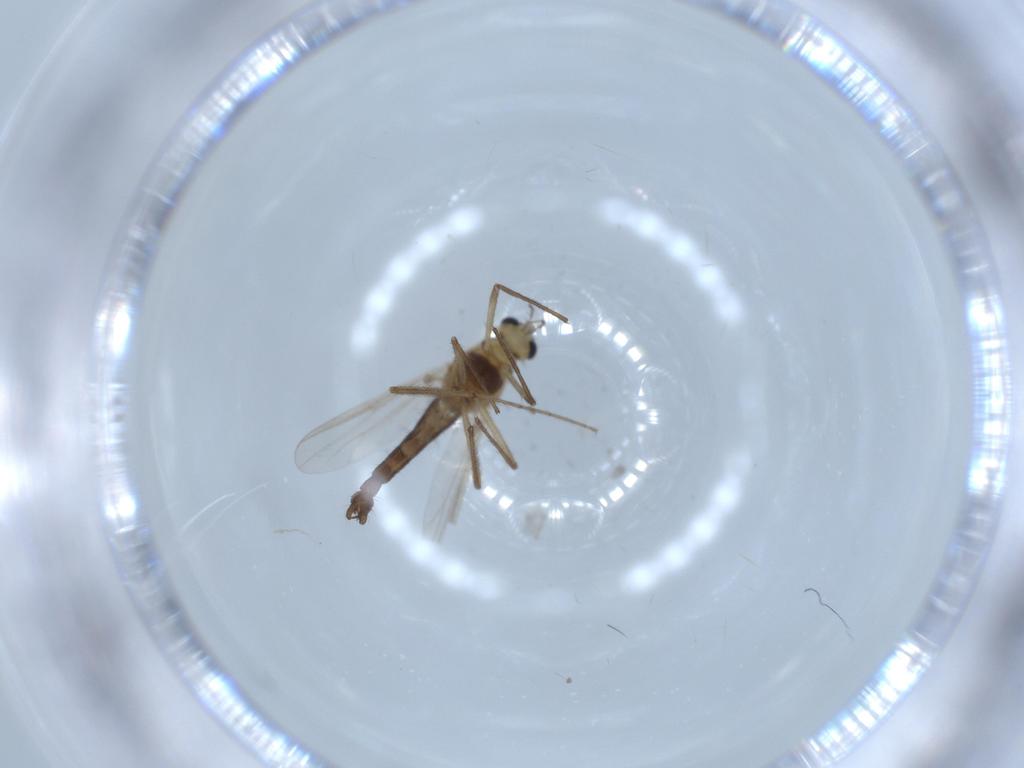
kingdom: Animalia
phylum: Arthropoda
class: Insecta
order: Diptera
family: Chironomidae
